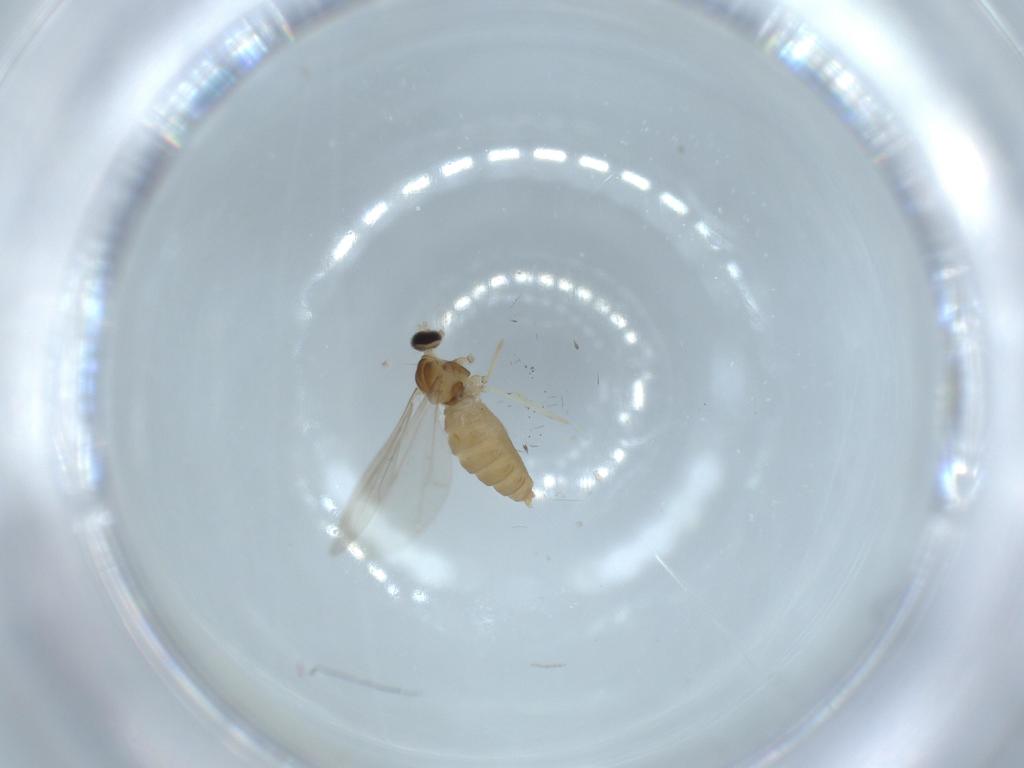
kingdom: Animalia
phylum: Arthropoda
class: Insecta
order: Diptera
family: Cecidomyiidae
